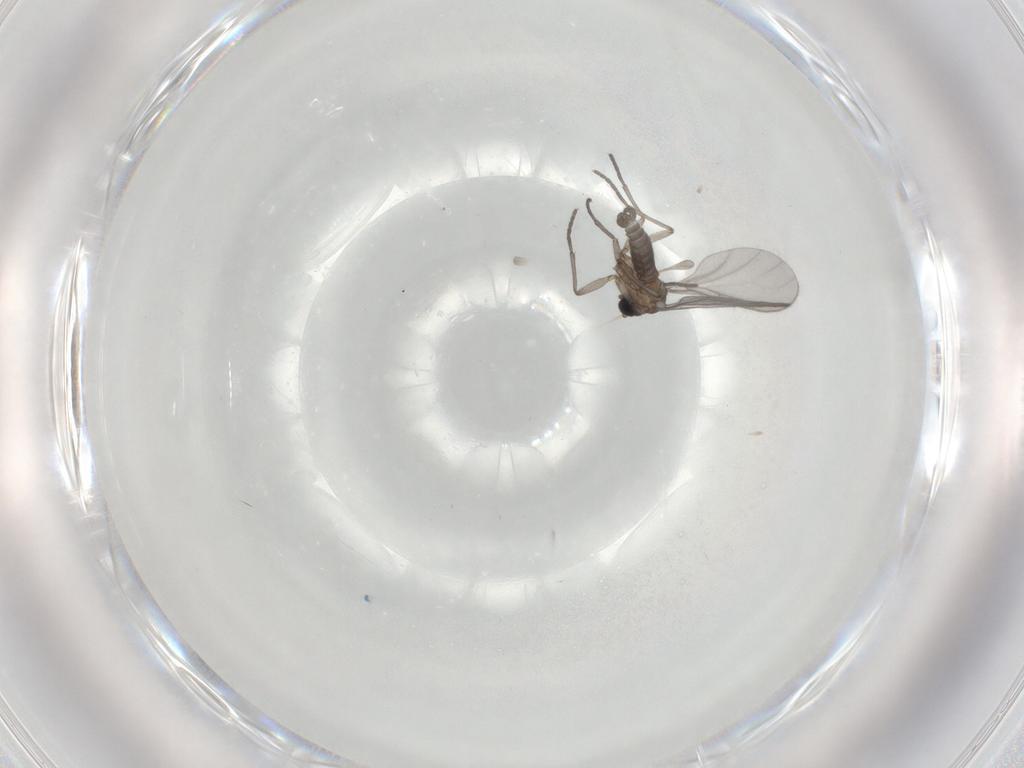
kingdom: Animalia
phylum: Arthropoda
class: Insecta
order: Diptera
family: Sciaridae
